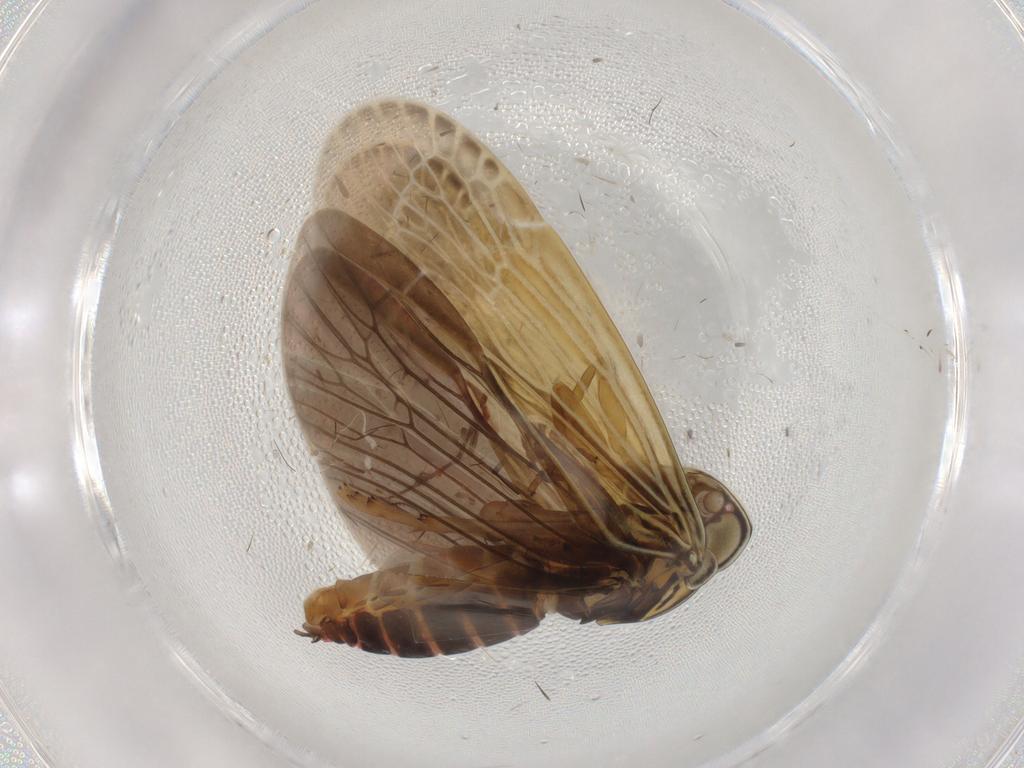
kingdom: Animalia
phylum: Arthropoda
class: Insecta
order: Hemiptera
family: Achilidae
